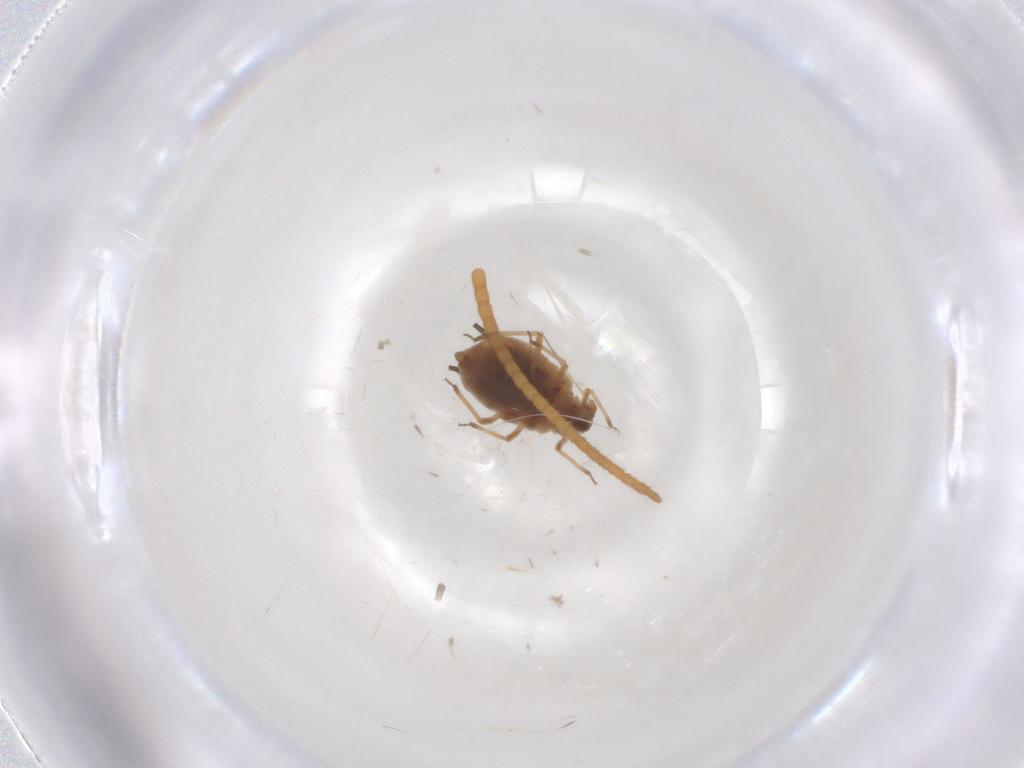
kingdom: Animalia
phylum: Arthropoda
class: Insecta
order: Hemiptera
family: Aphididae
